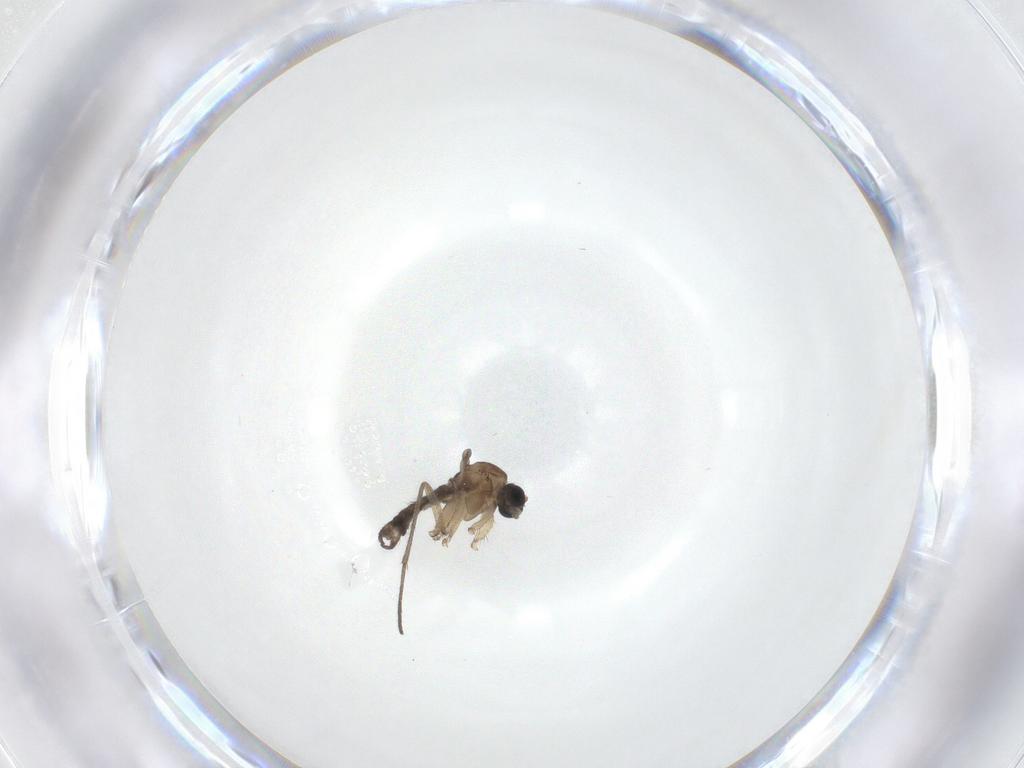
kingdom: Animalia
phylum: Arthropoda
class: Insecta
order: Diptera
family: Sciaridae
